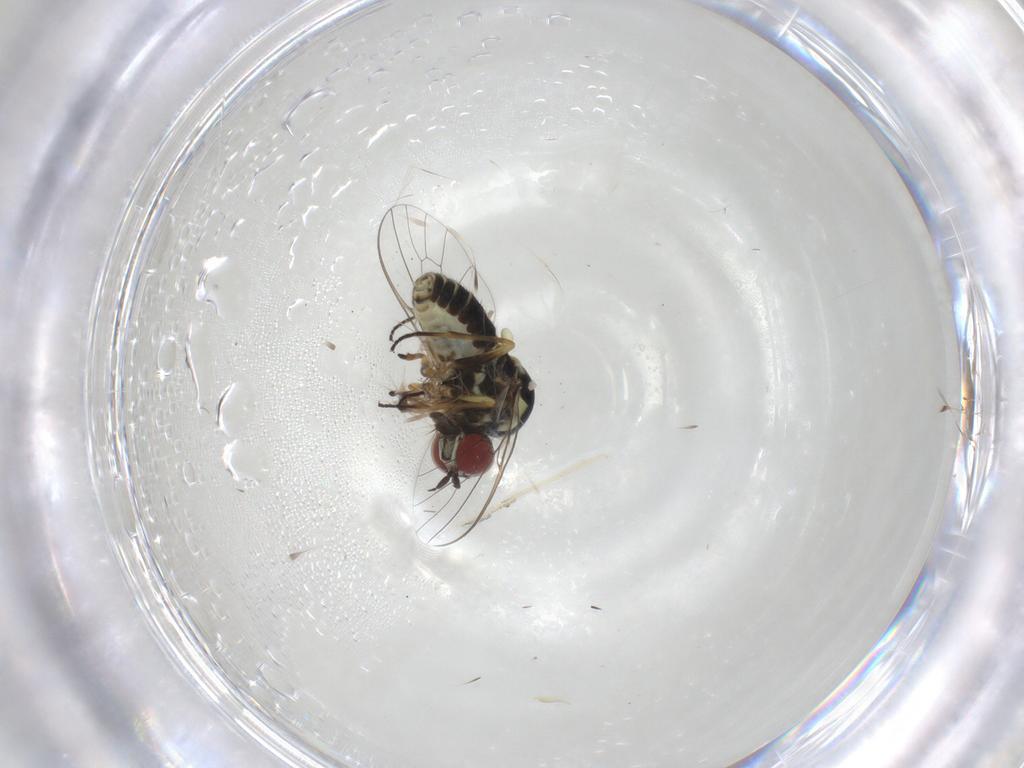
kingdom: Animalia
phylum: Arthropoda
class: Insecta
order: Diptera
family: Bombyliidae
